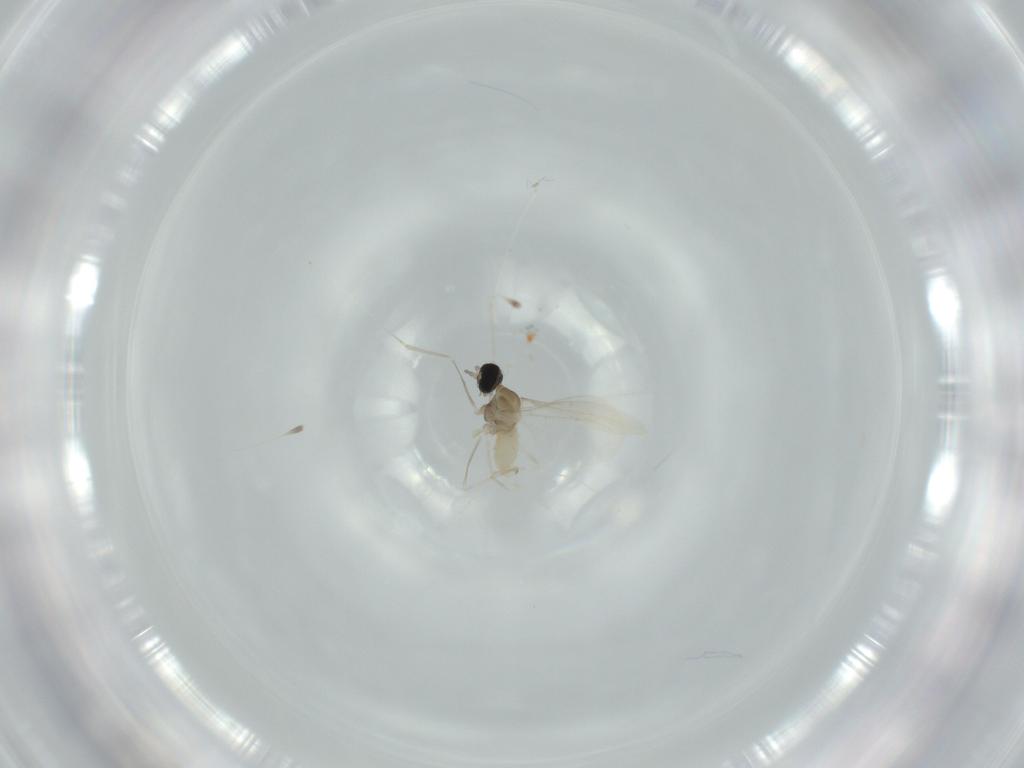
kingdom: Animalia
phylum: Arthropoda
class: Insecta
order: Diptera
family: Cecidomyiidae
